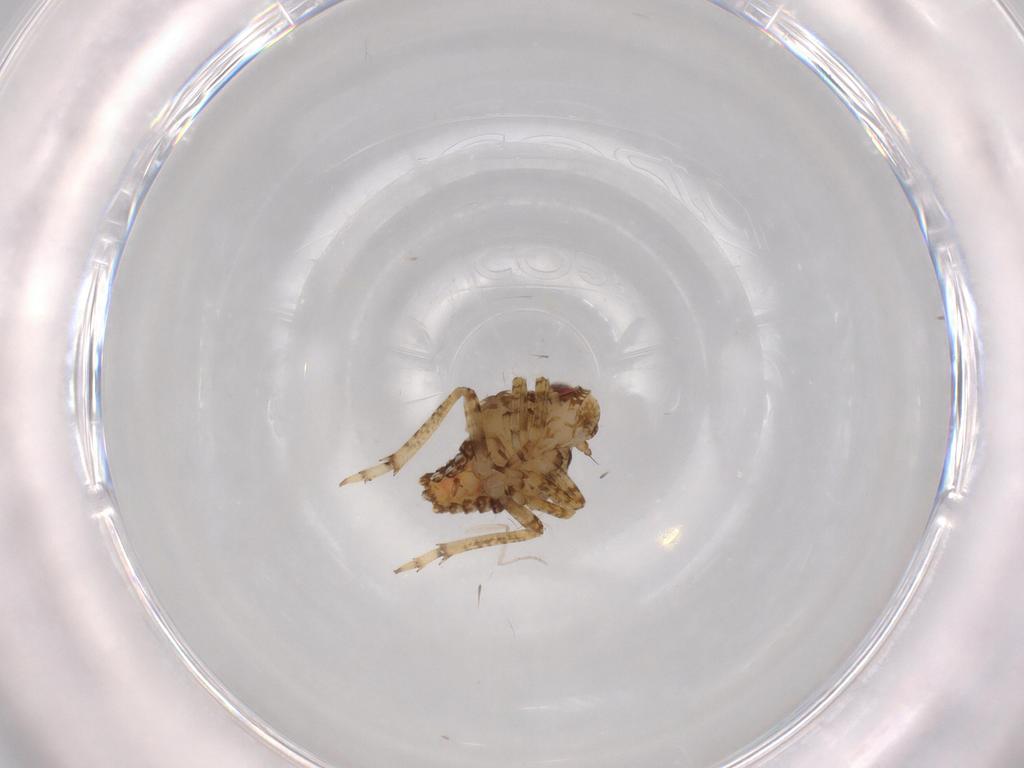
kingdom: Animalia
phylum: Arthropoda
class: Insecta
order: Hemiptera
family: Issidae
